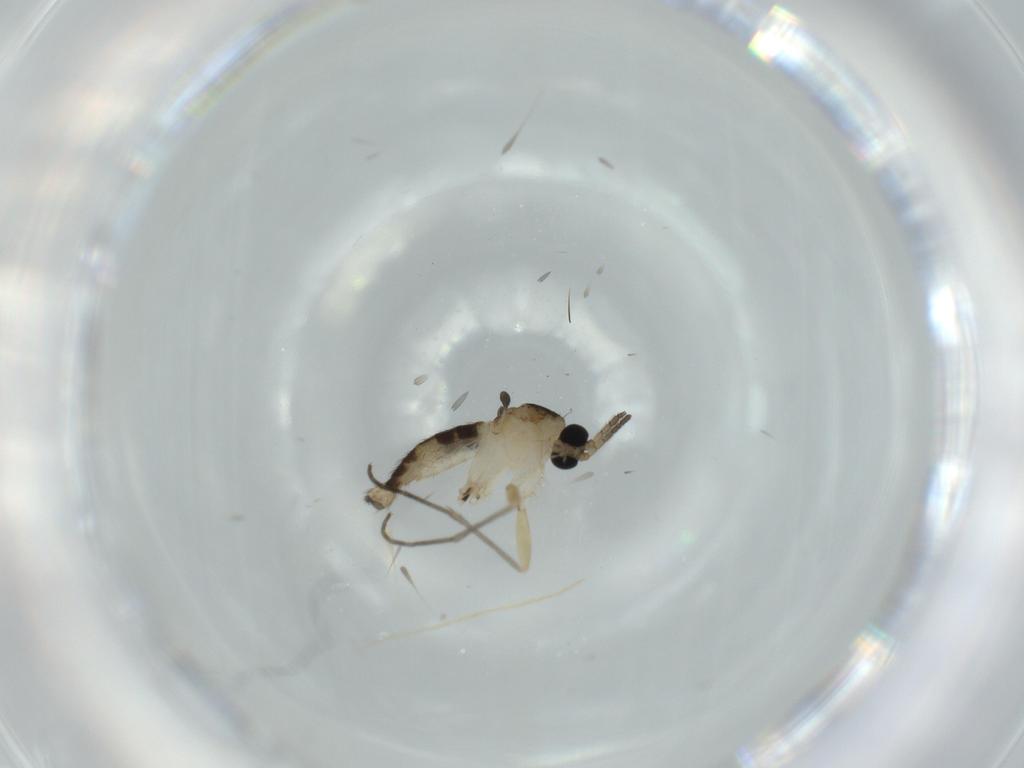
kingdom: Animalia
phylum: Arthropoda
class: Insecta
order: Diptera
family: Sciaridae
